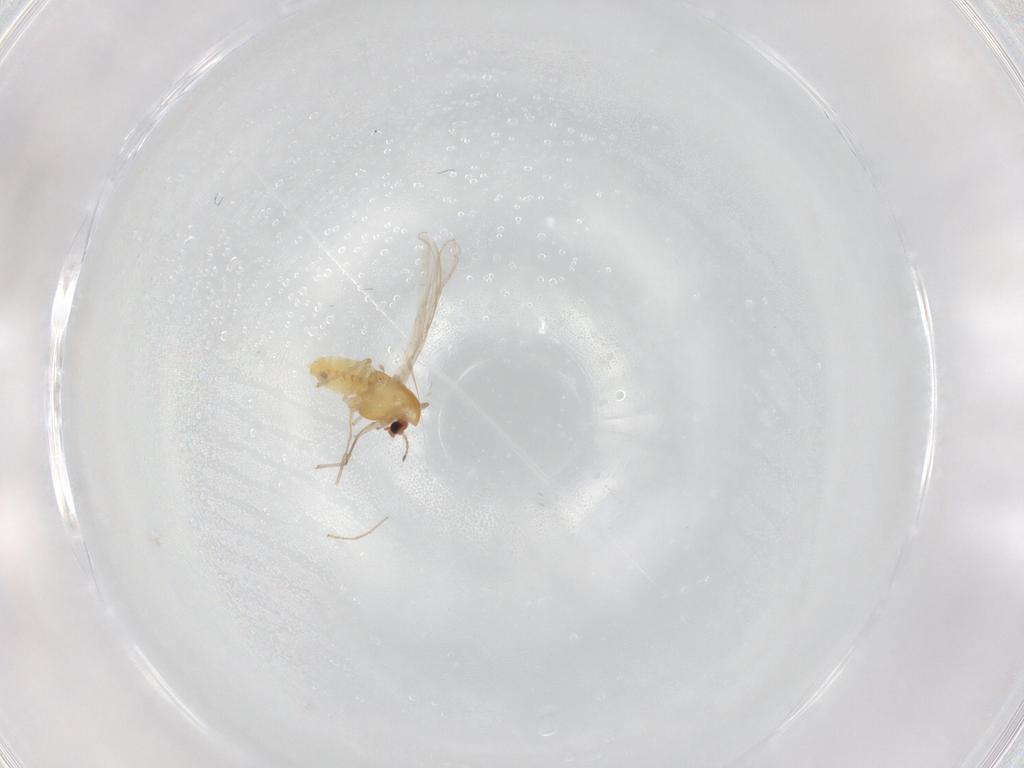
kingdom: Animalia
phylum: Arthropoda
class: Insecta
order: Diptera
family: Chironomidae
